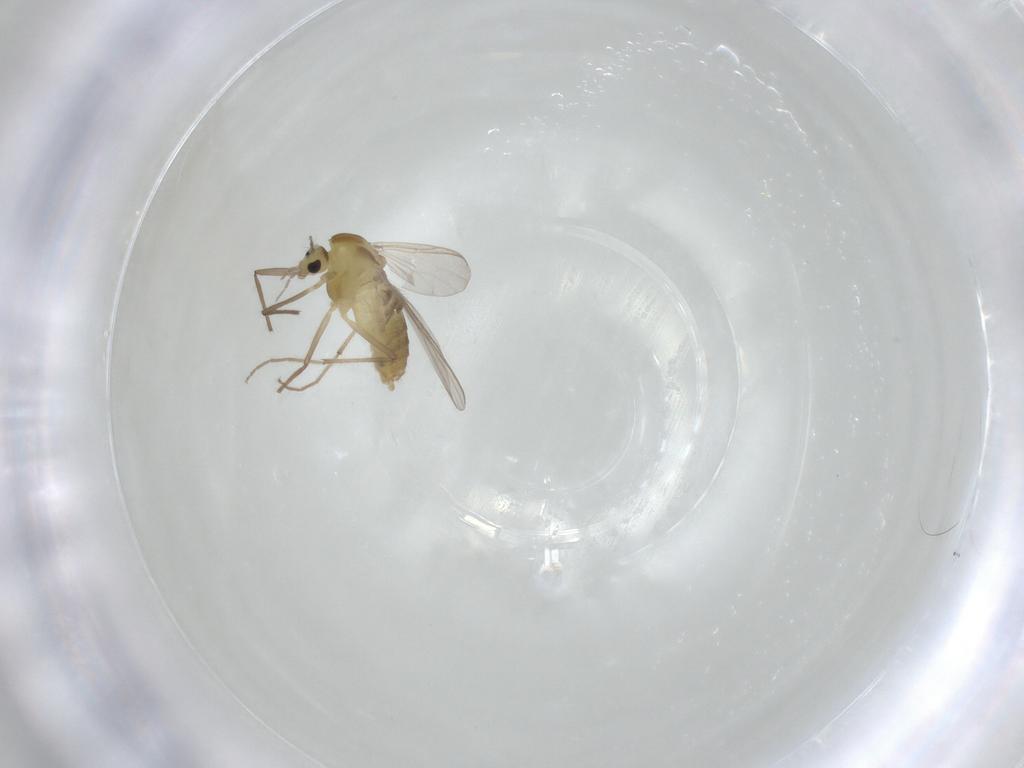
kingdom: Animalia
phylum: Arthropoda
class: Insecta
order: Diptera
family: Chironomidae
